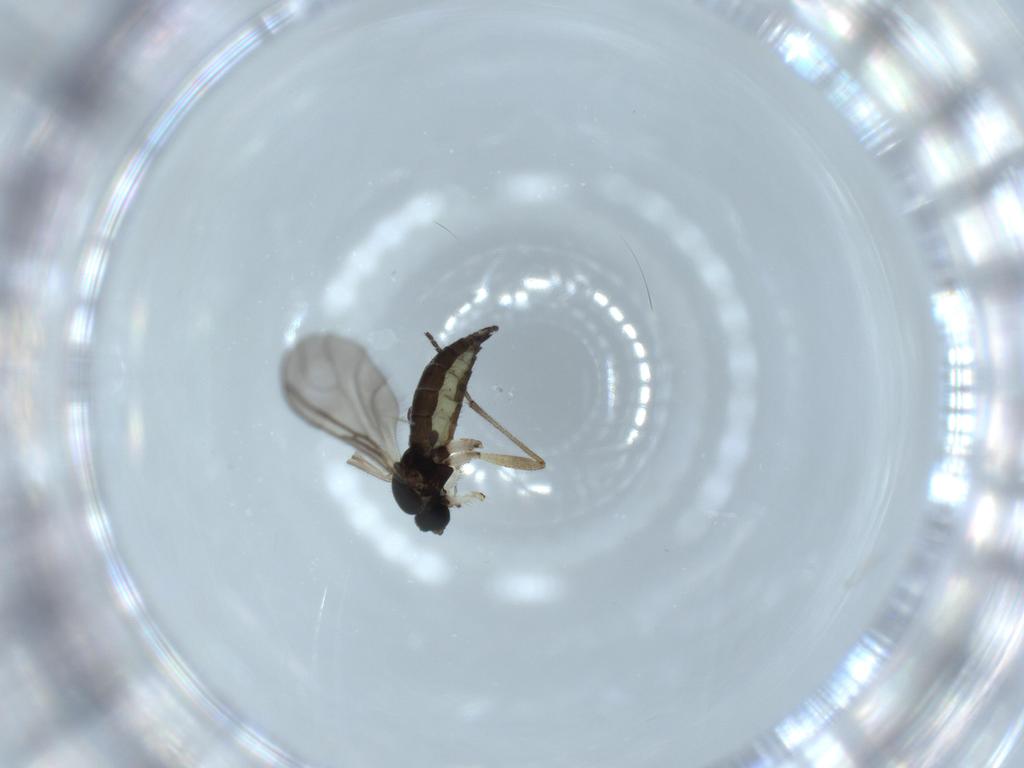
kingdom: Animalia
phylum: Arthropoda
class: Insecta
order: Diptera
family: Sciaridae
